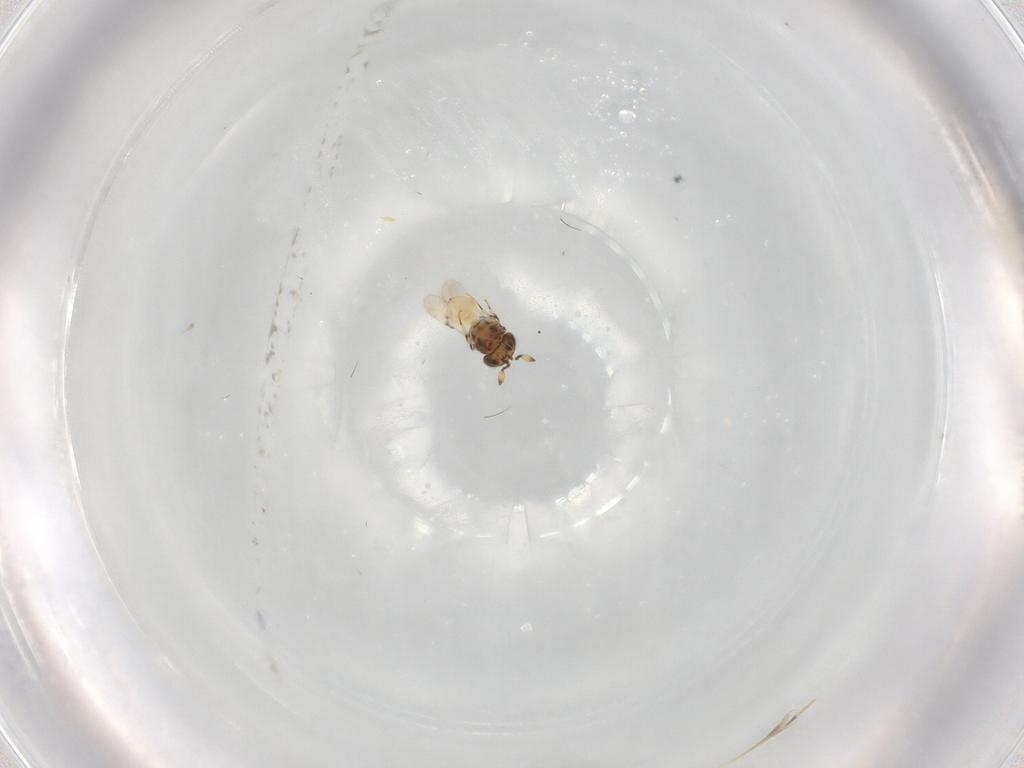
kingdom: Animalia
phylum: Arthropoda
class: Insecta
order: Hymenoptera
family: Scelionidae
